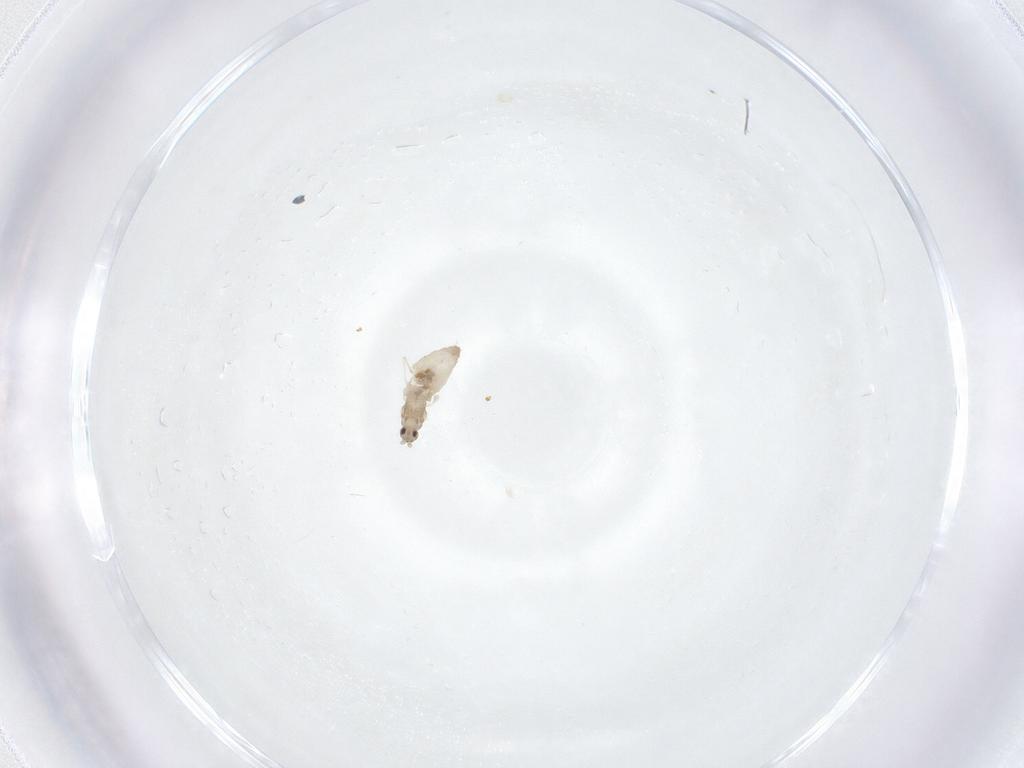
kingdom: Animalia
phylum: Arthropoda
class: Insecta
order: Diptera
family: Cecidomyiidae
